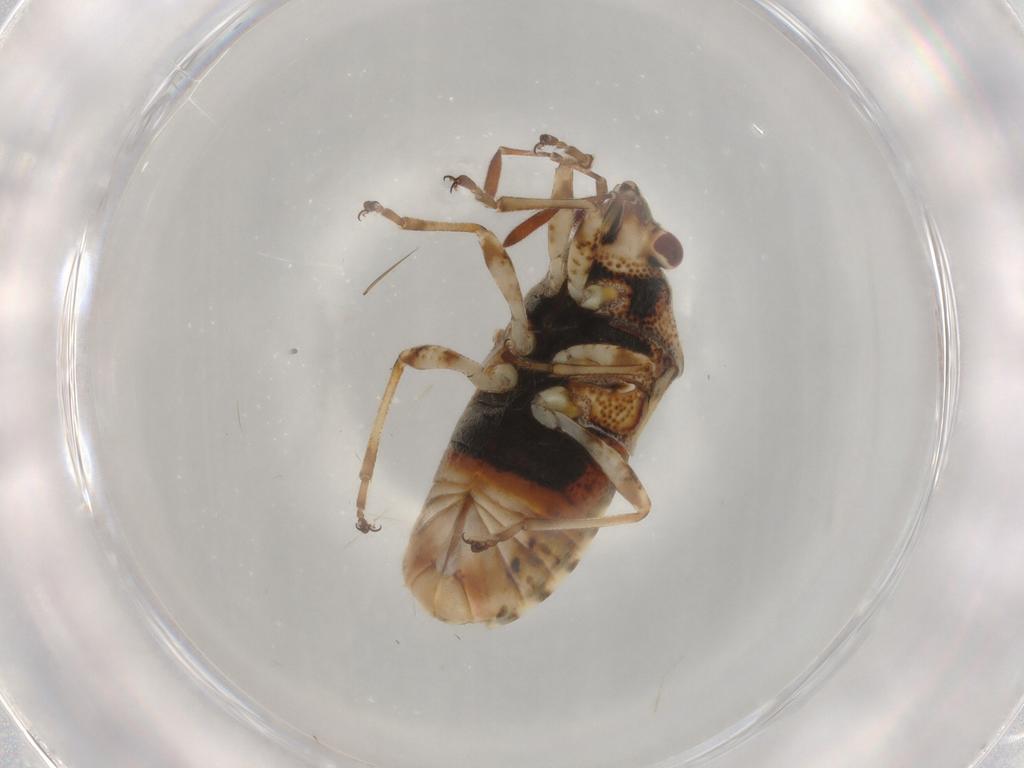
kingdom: Animalia
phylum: Arthropoda
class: Insecta
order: Hemiptera
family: Lygaeidae
